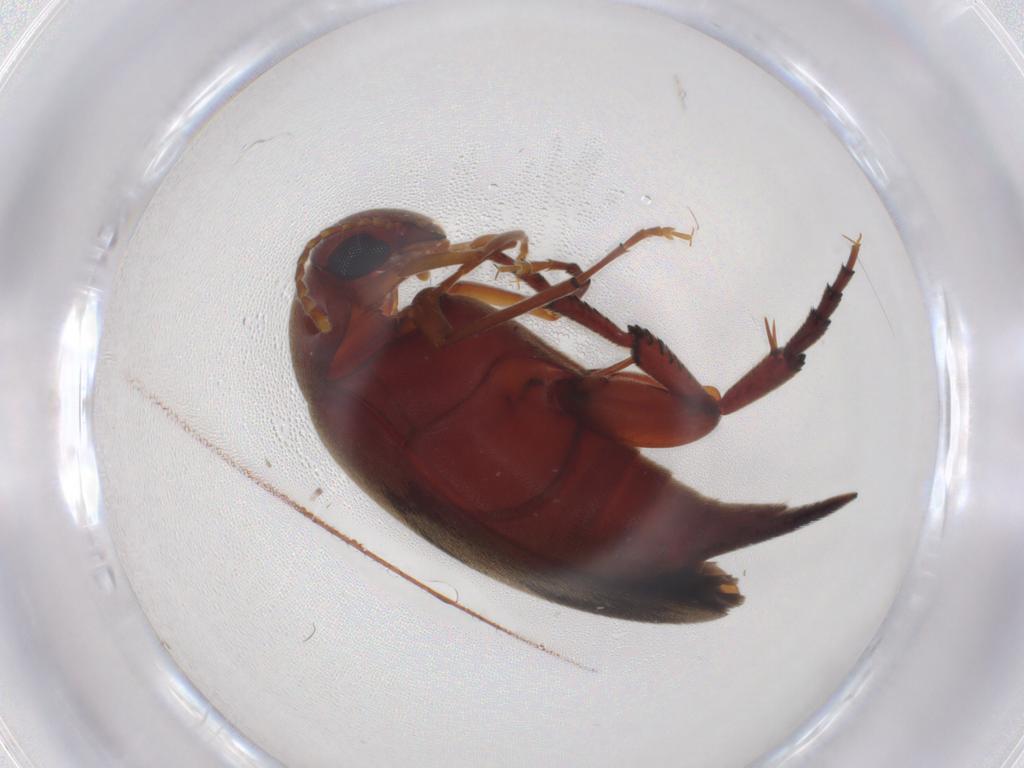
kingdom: Animalia
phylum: Arthropoda
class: Insecta
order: Coleoptera
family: Mordellidae
